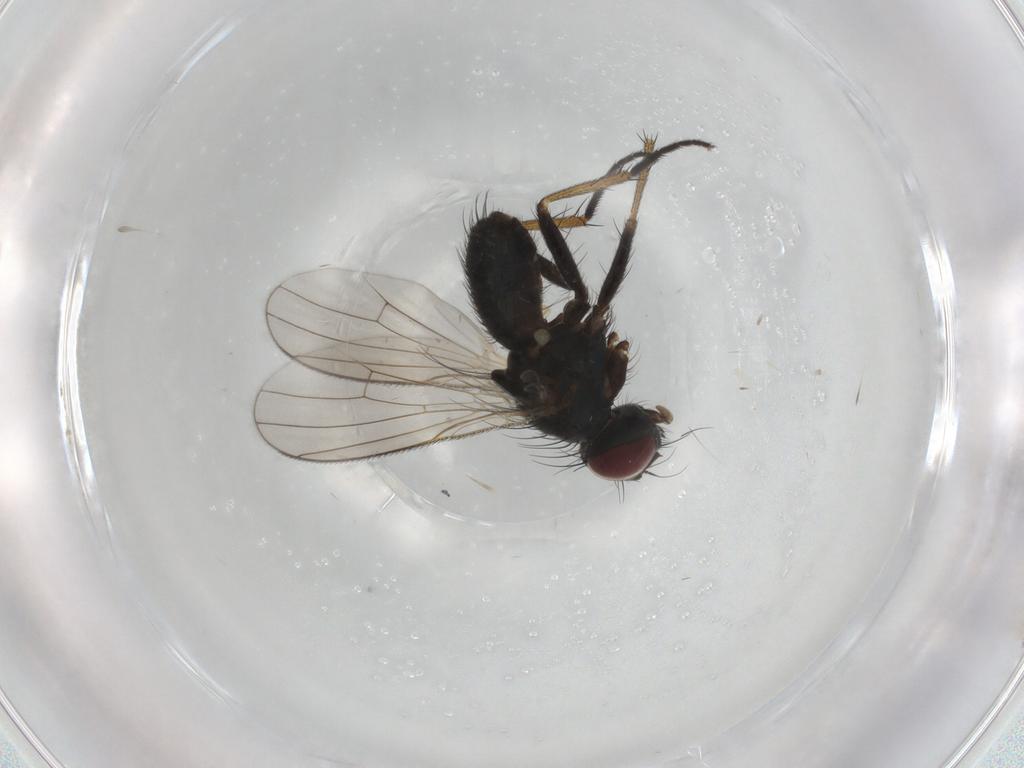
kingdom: Animalia
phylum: Arthropoda
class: Insecta
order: Diptera
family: Muscidae
